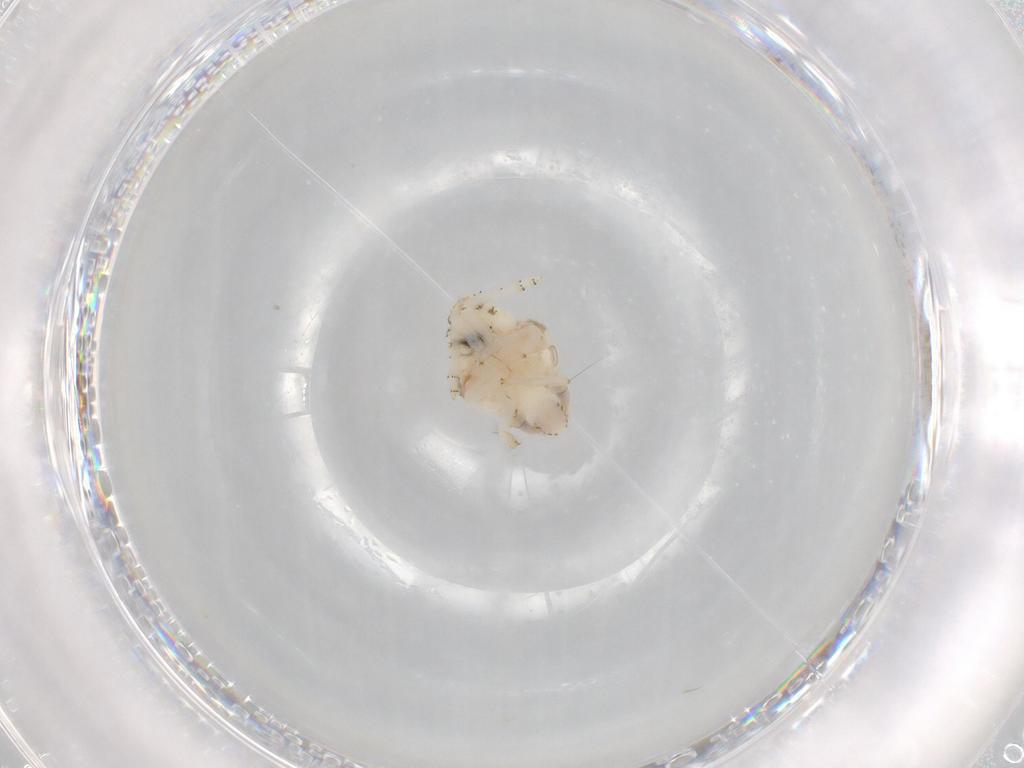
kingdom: Animalia
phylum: Arthropoda
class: Insecta
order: Hemiptera
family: Nogodinidae
